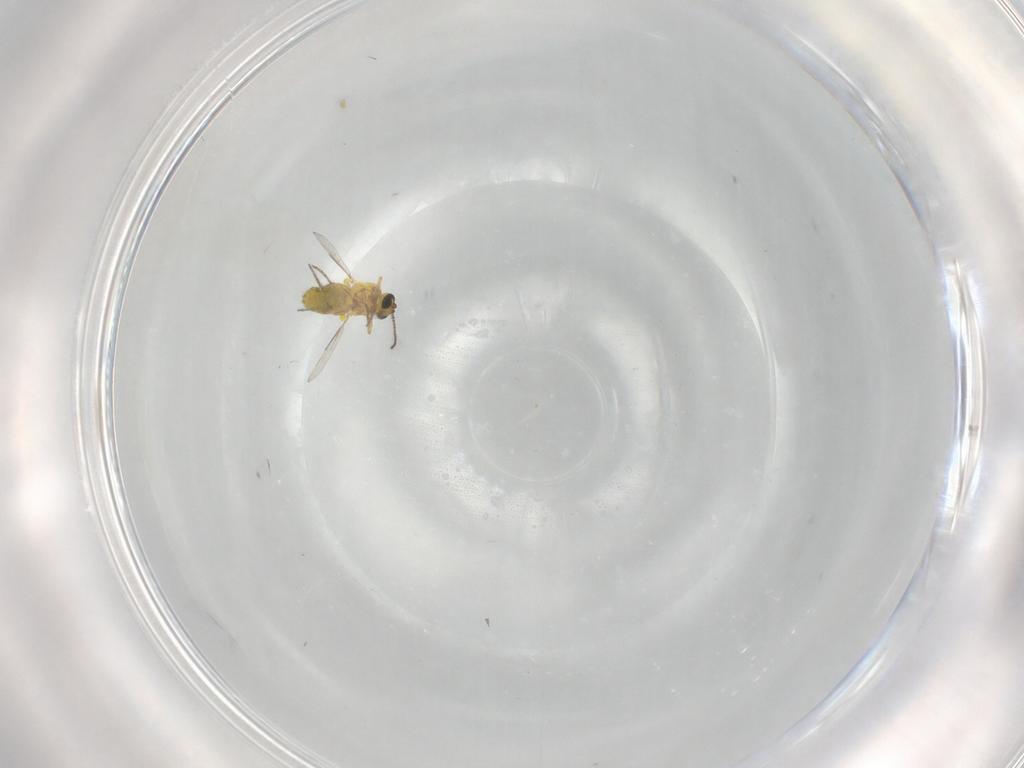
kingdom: Animalia
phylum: Arthropoda
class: Insecta
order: Diptera
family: Ceratopogonidae
